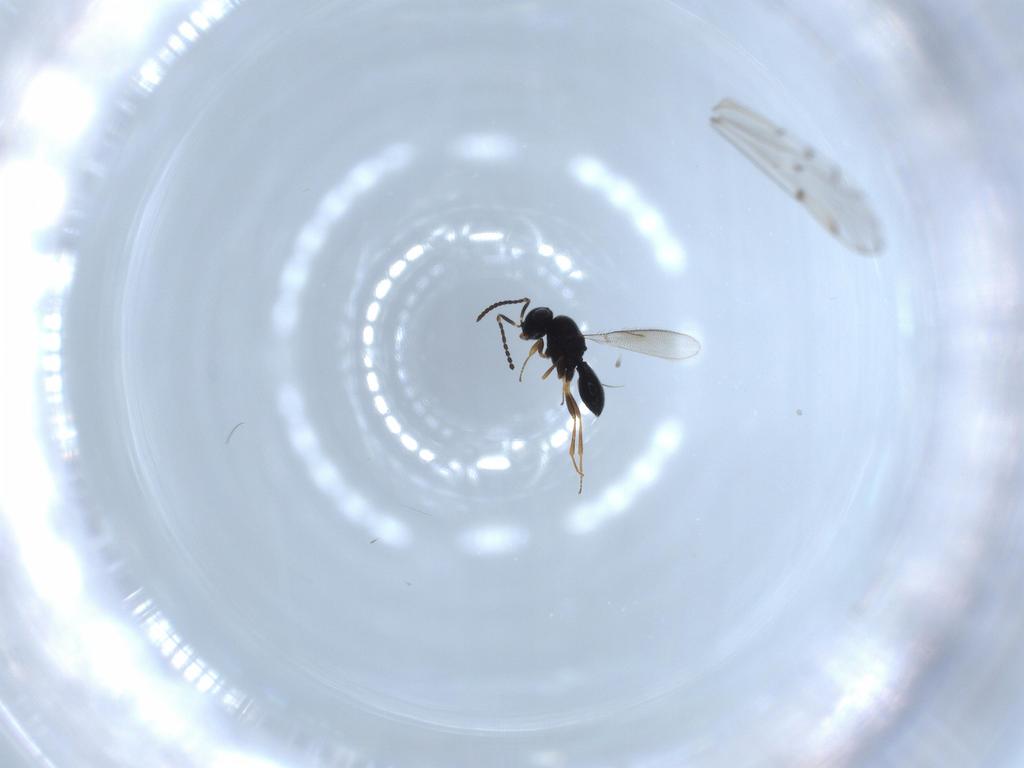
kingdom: Animalia
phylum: Arthropoda
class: Insecta
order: Hymenoptera
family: Scelionidae
